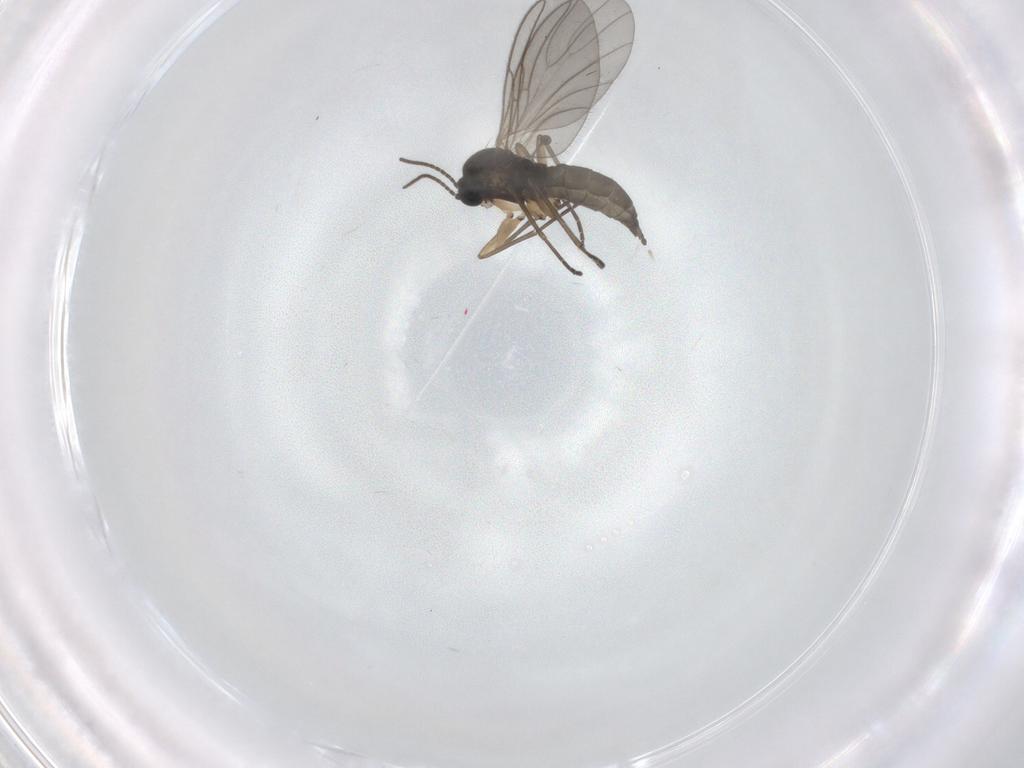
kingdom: Animalia
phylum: Arthropoda
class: Insecta
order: Diptera
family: Sciaridae
